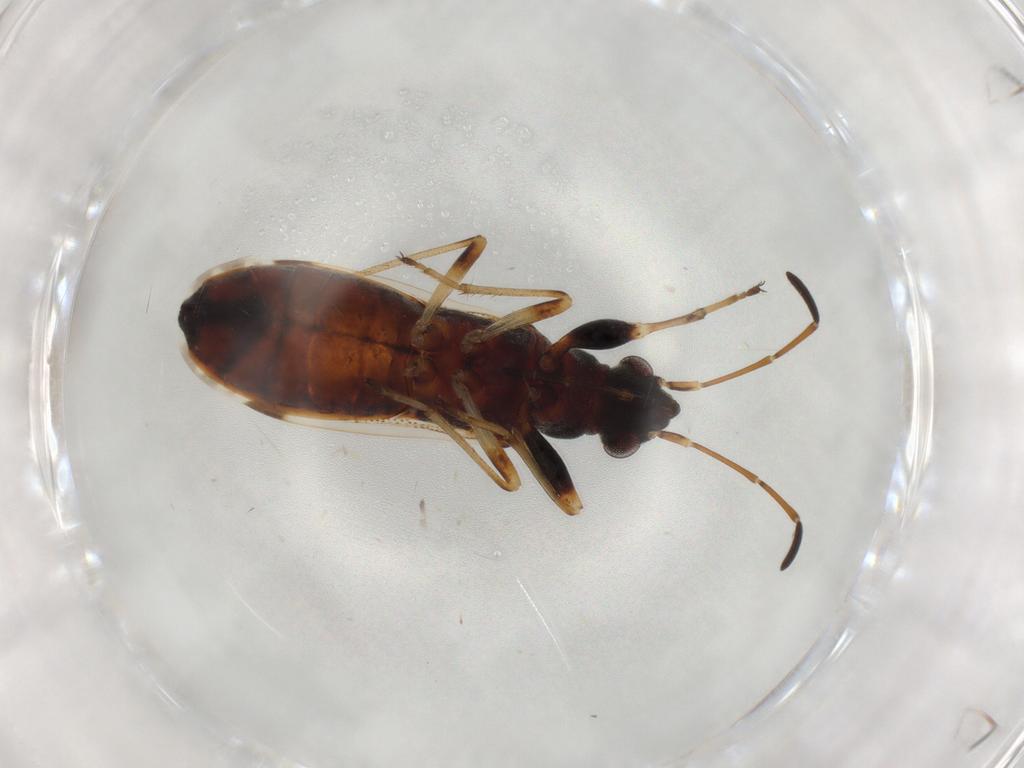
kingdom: Animalia
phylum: Arthropoda
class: Insecta
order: Hemiptera
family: Rhyparochromidae
